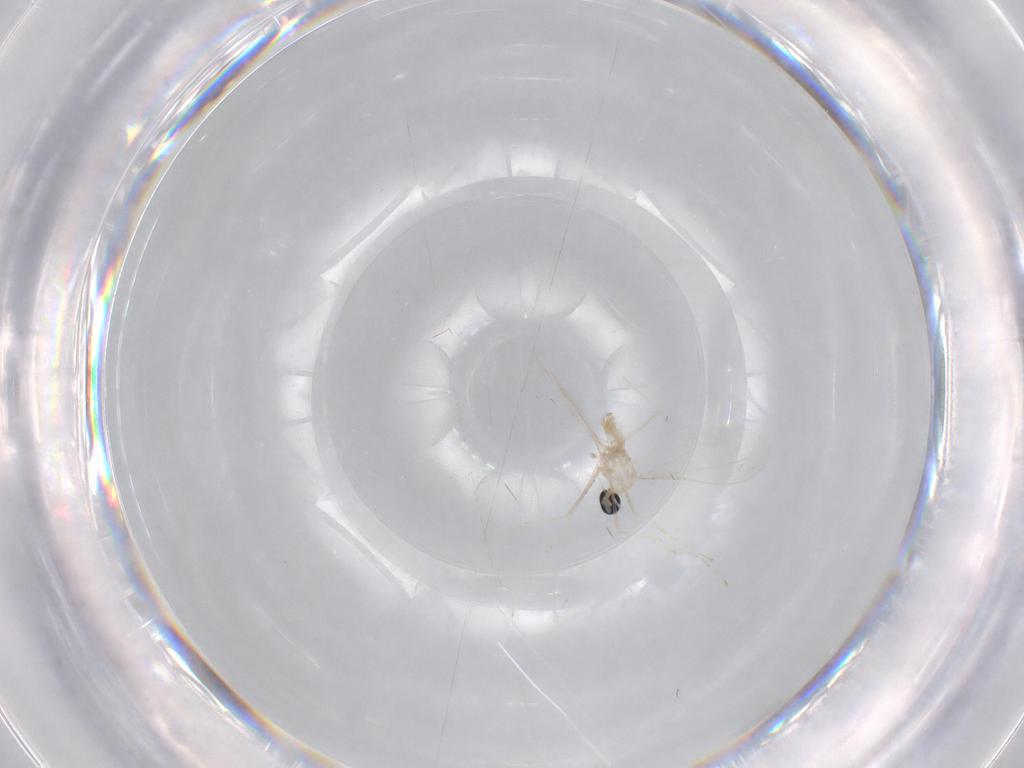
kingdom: Animalia
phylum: Arthropoda
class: Insecta
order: Diptera
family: Cecidomyiidae
